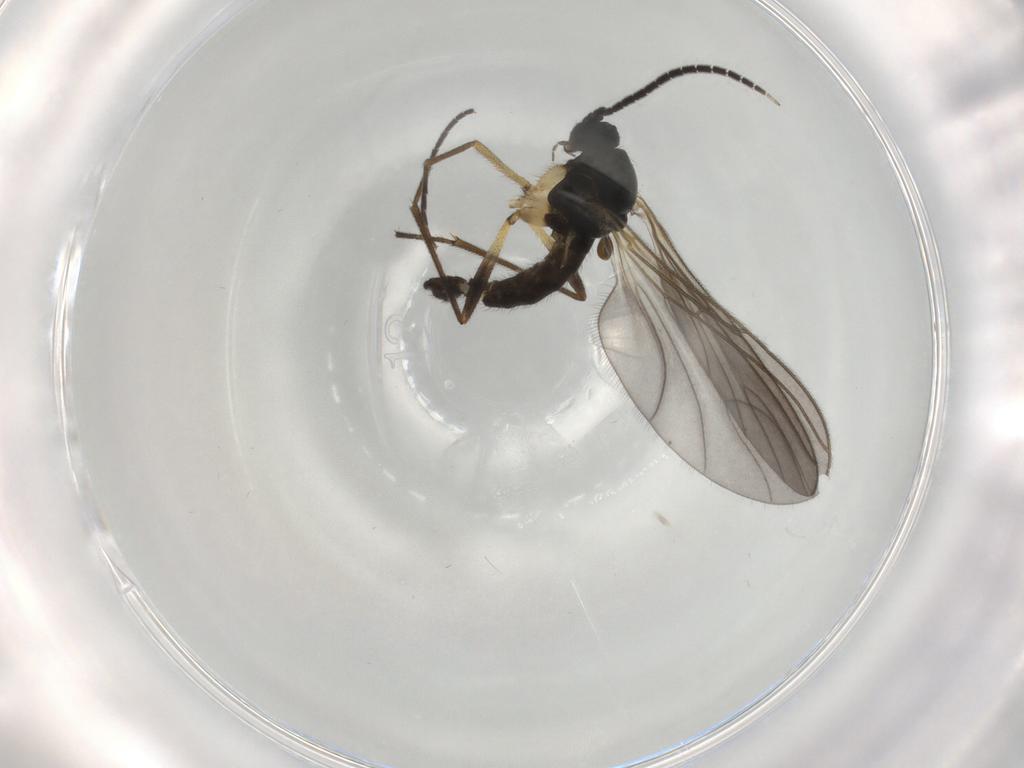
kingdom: Animalia
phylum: Arthropoda
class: Insecta
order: Diptera
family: Sciaridae
